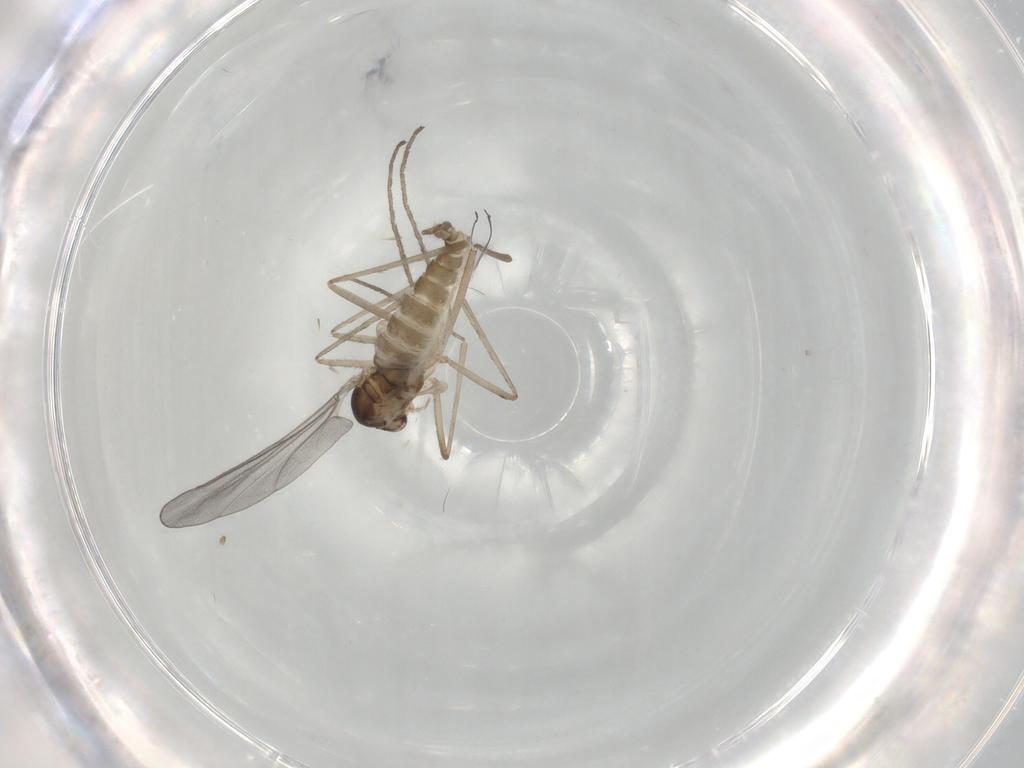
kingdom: Animalia
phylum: Arthropoda
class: Insecta
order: Diptera
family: Cecidomyiidae
